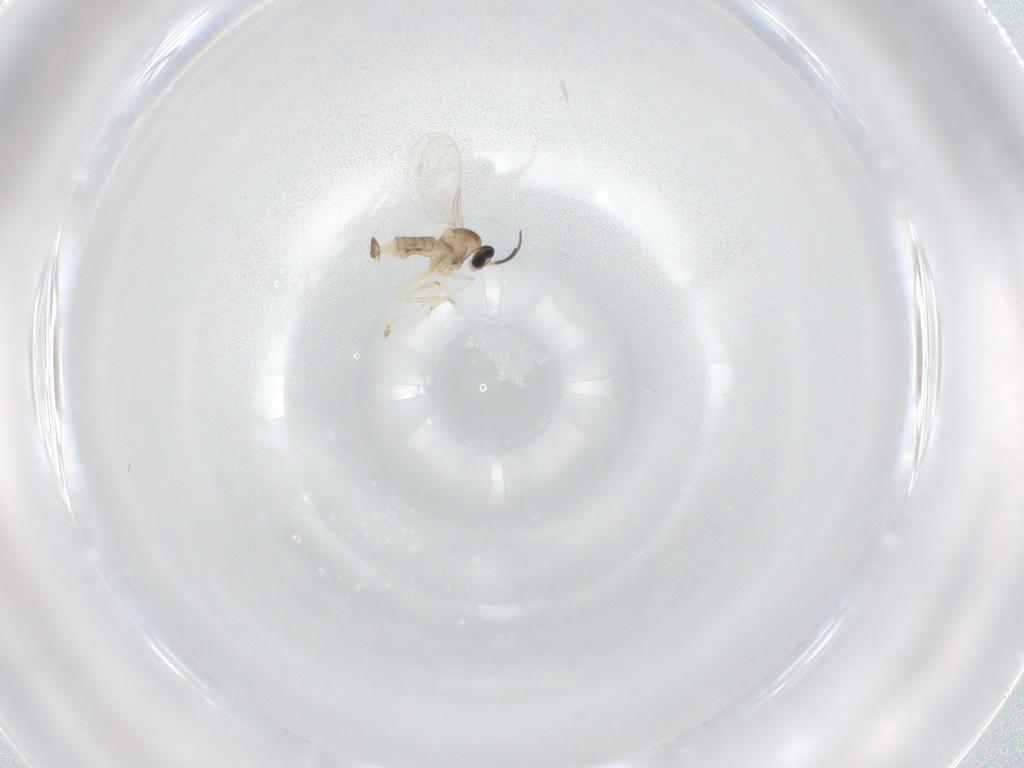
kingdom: Animalia
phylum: Arthropoda
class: Insecta
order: Diptera
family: Cecidomyiidae
